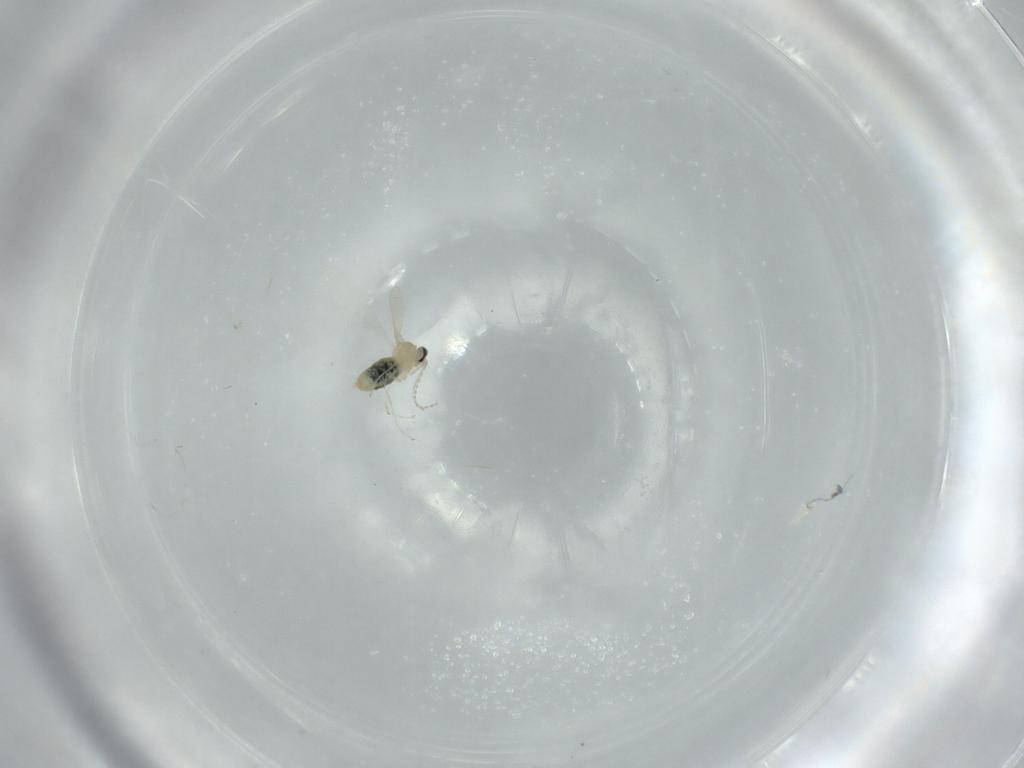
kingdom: Animalia
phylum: Arthropoda
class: Insecta
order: Diptera
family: Cecidomyiidae
